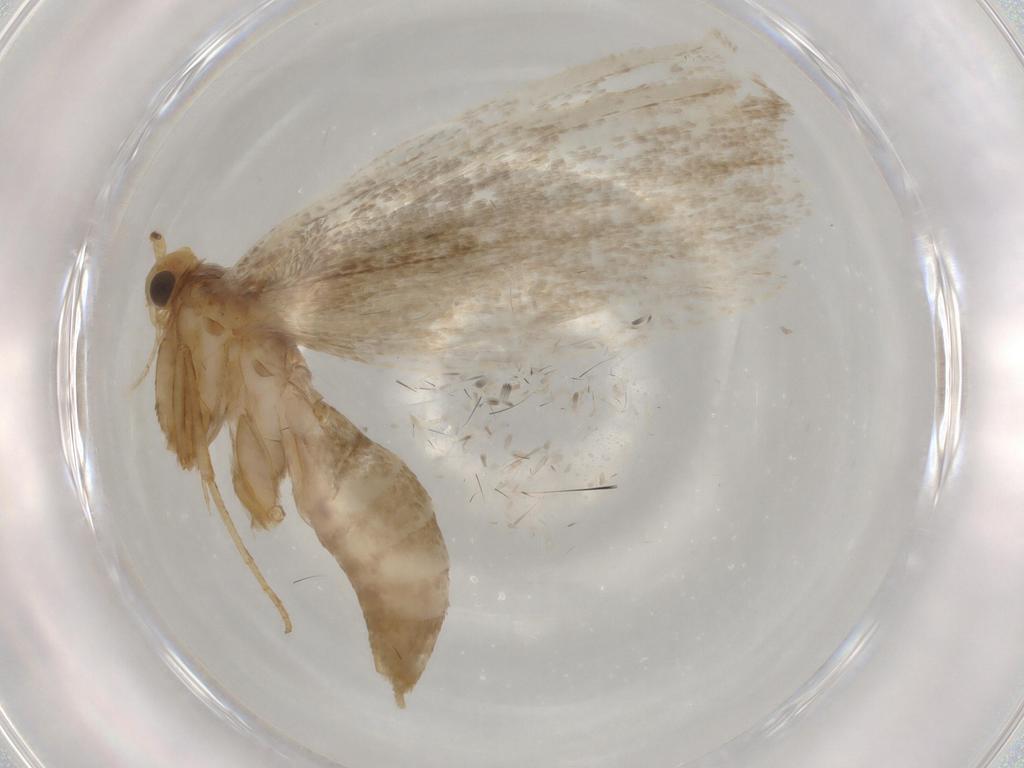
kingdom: Animalia
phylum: Arthropoda
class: Insecta
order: Lepidoptera
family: Argyresthiidae
